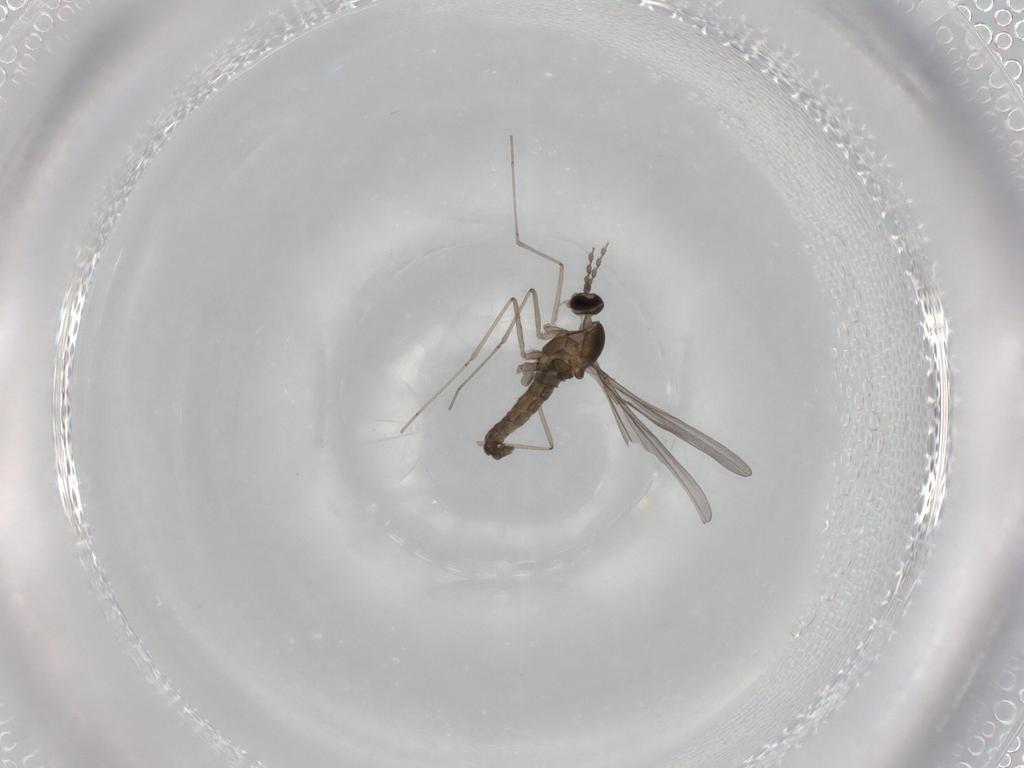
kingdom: Animalia
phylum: Arthropoda
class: Insecta
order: Diptera
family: Cecidomyiidae
